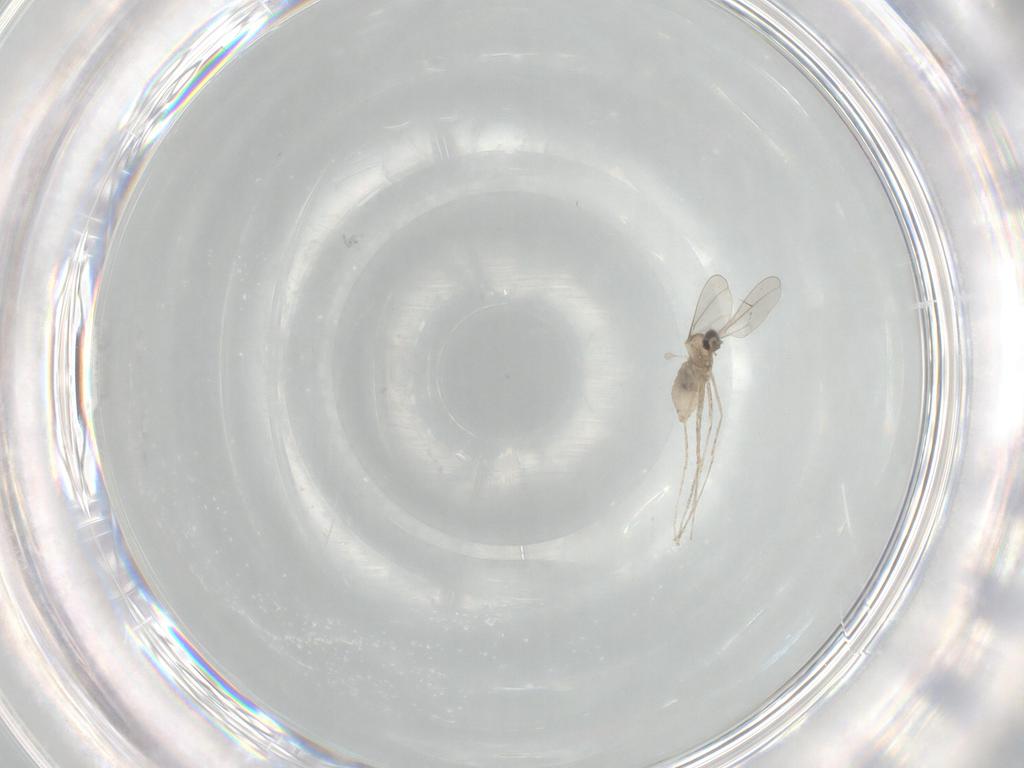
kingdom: Animalia
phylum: Arthropoda
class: Insecta
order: Diptera
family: Cecidomyiidae
